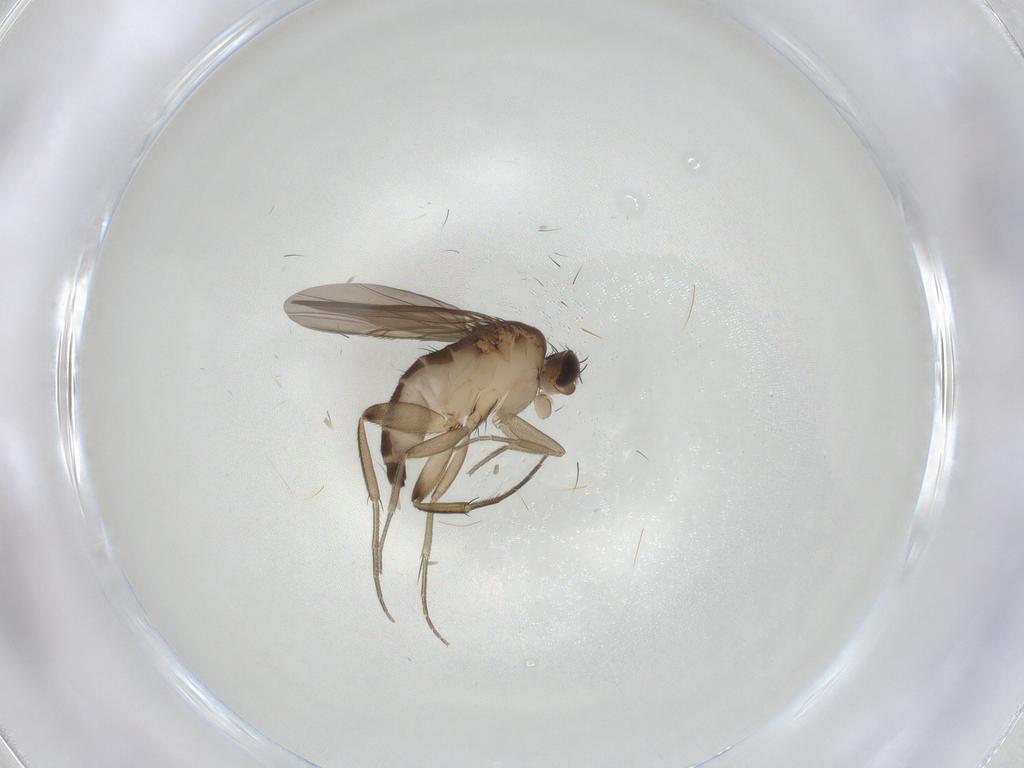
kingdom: Animalia
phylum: Arthropoda
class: Insecta
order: Diptera
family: Phoridae
